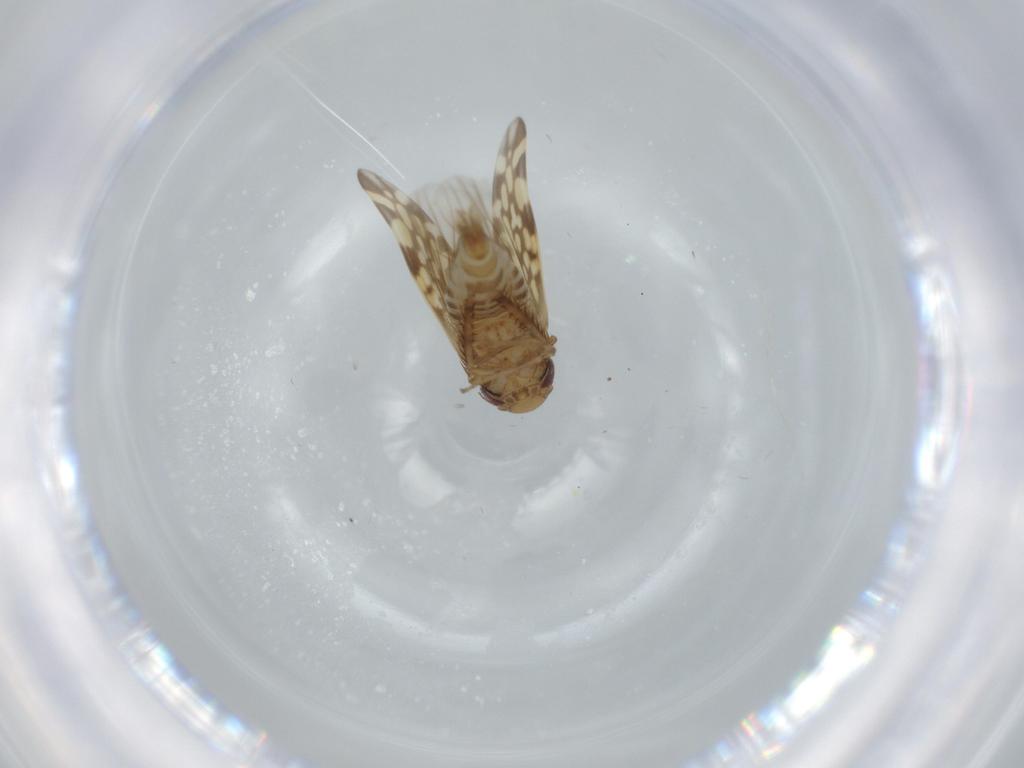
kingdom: Animalia
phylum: Arthropoda
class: Insecta
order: Hemiptera
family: Cicadellidae
